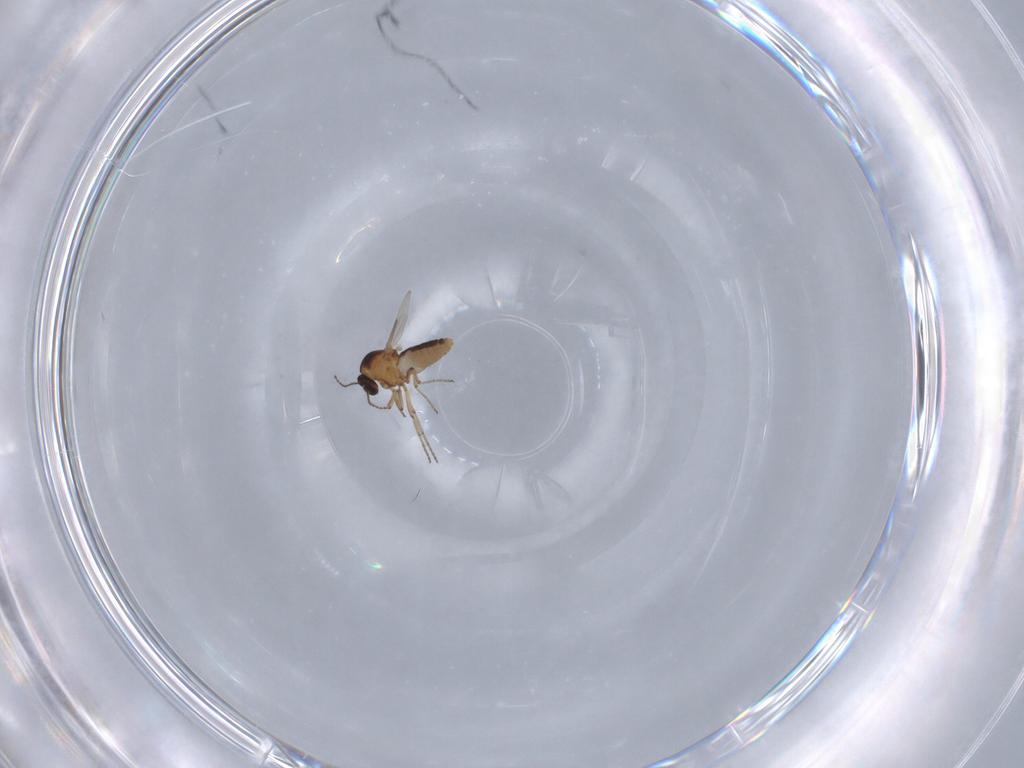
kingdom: Animalia
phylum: Arthropoda
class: Insecta
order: Diptera
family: Ceratopogonidae
